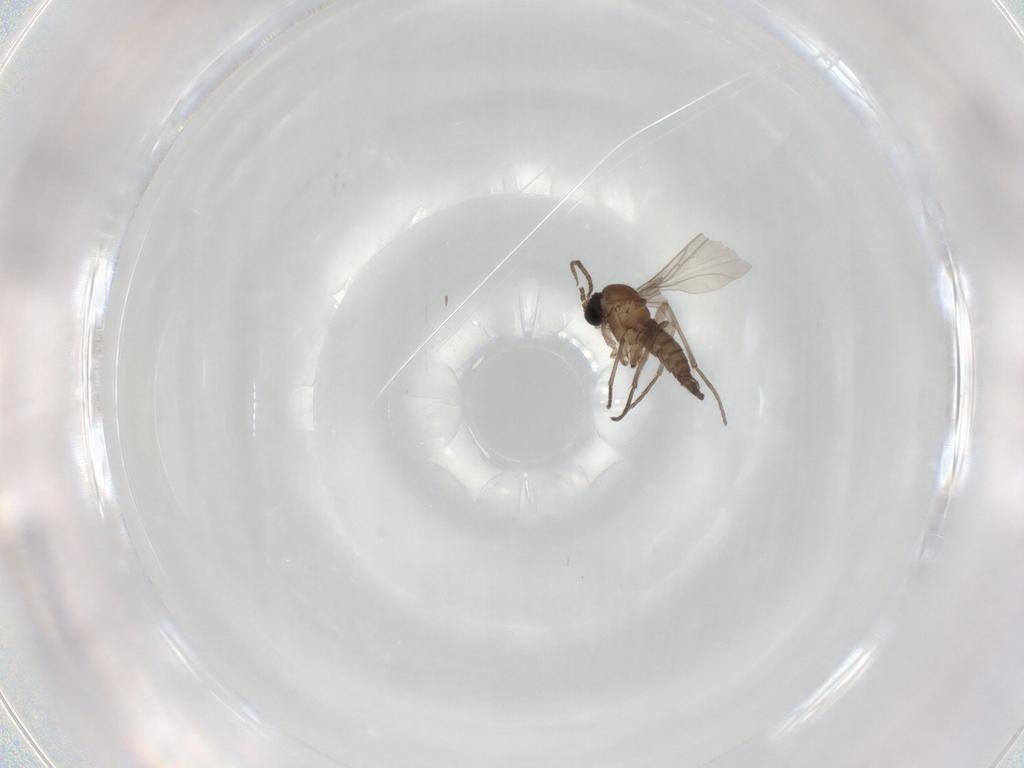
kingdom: Animalia
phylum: Arthropoda
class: Insecta
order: Diptera
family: Sciaridae
